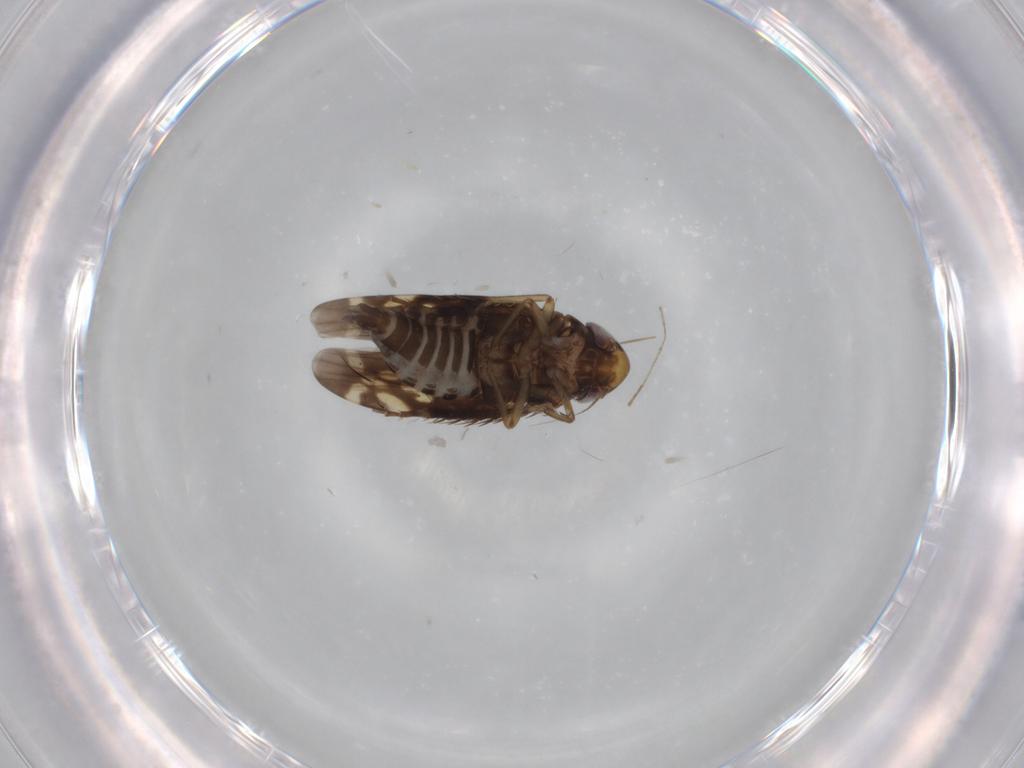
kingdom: Animalia
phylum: Arthropoda
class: Insecta
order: Hemiptera
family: Cicadellidae
